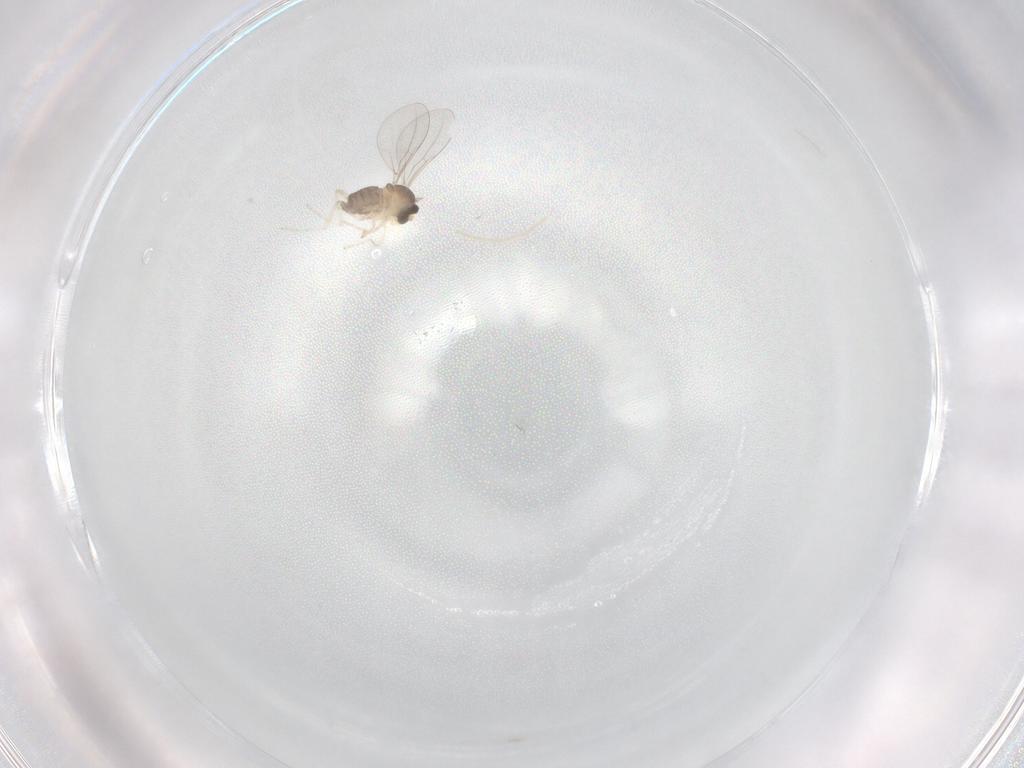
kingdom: Animalia
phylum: Arthropoda
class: Insecta
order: Diptera
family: Cecidomyiidae
